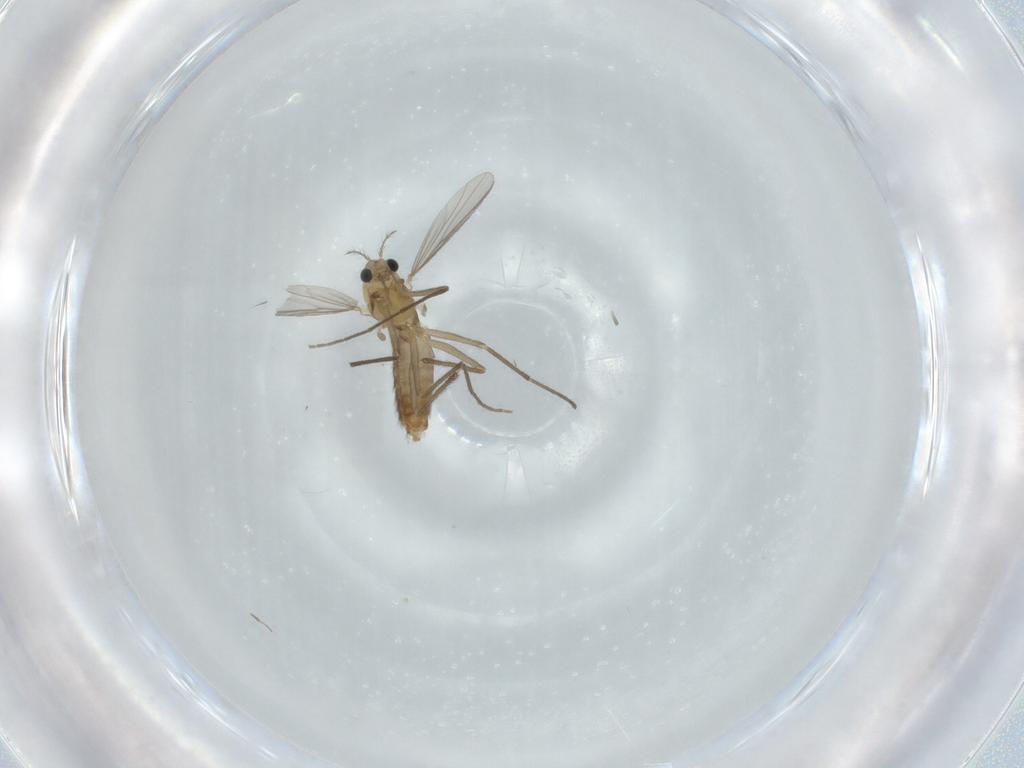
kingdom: Animalia
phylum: Arthropoda
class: Insecta
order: Diptera
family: Chironomidae
